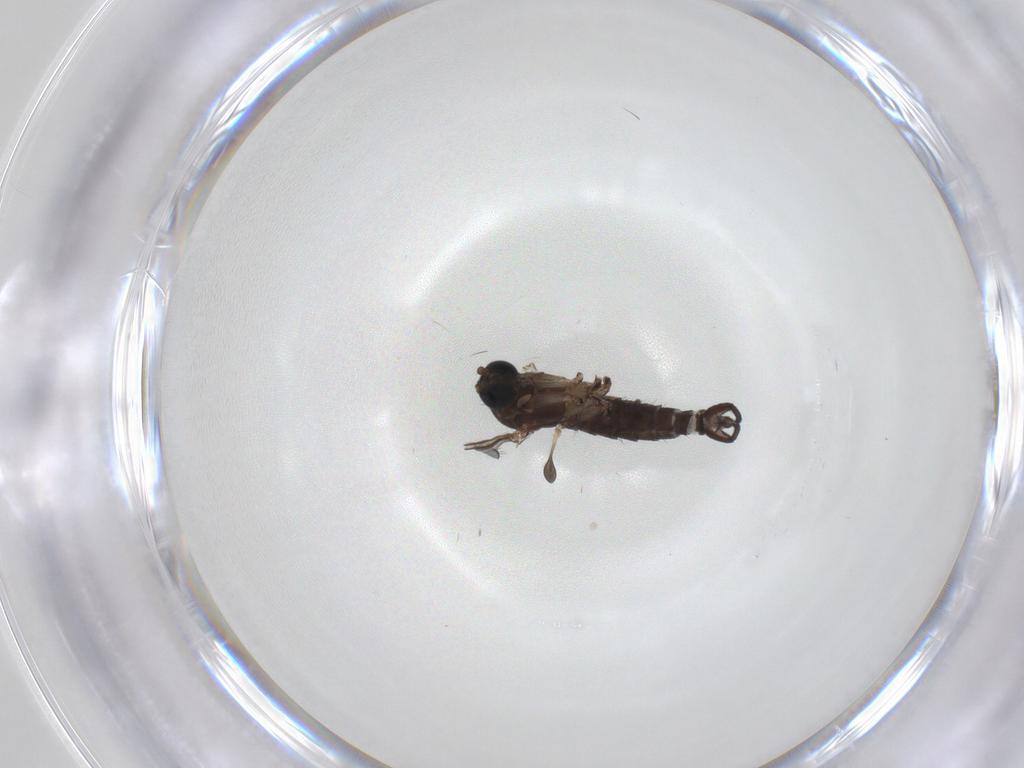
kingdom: Animalia
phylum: Arthropoda
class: Insecta
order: Diptera
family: Sciaridae
